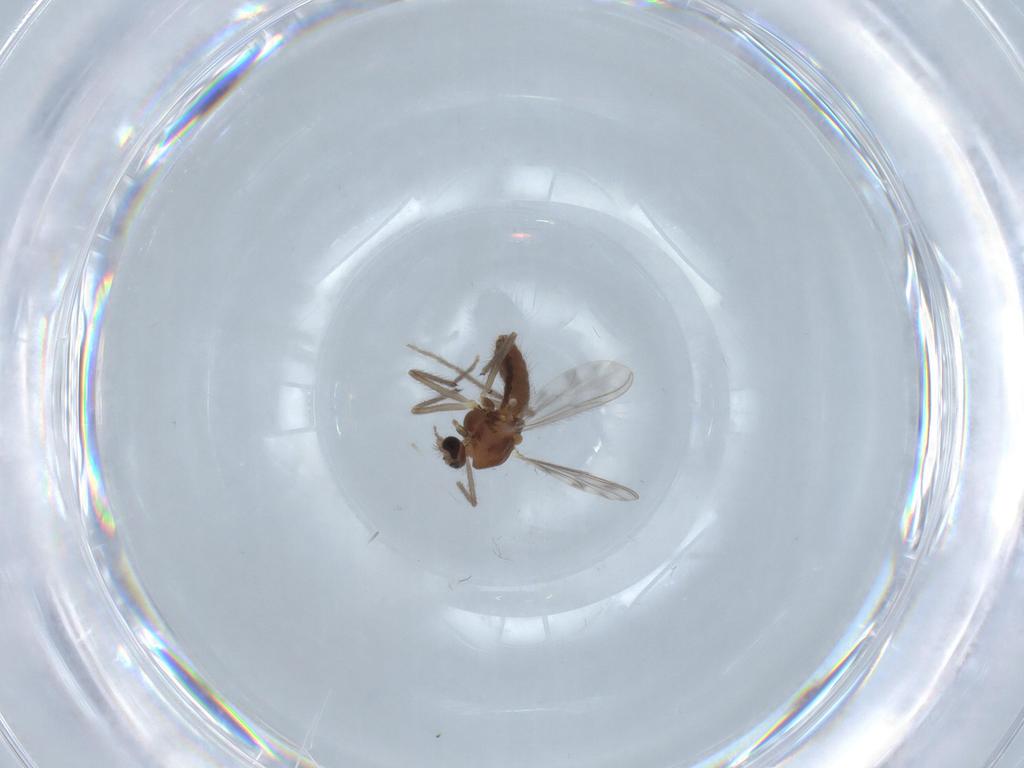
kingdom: Animalia
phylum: Arthropoda
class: Insecta
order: Diptera
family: Chironomidae
